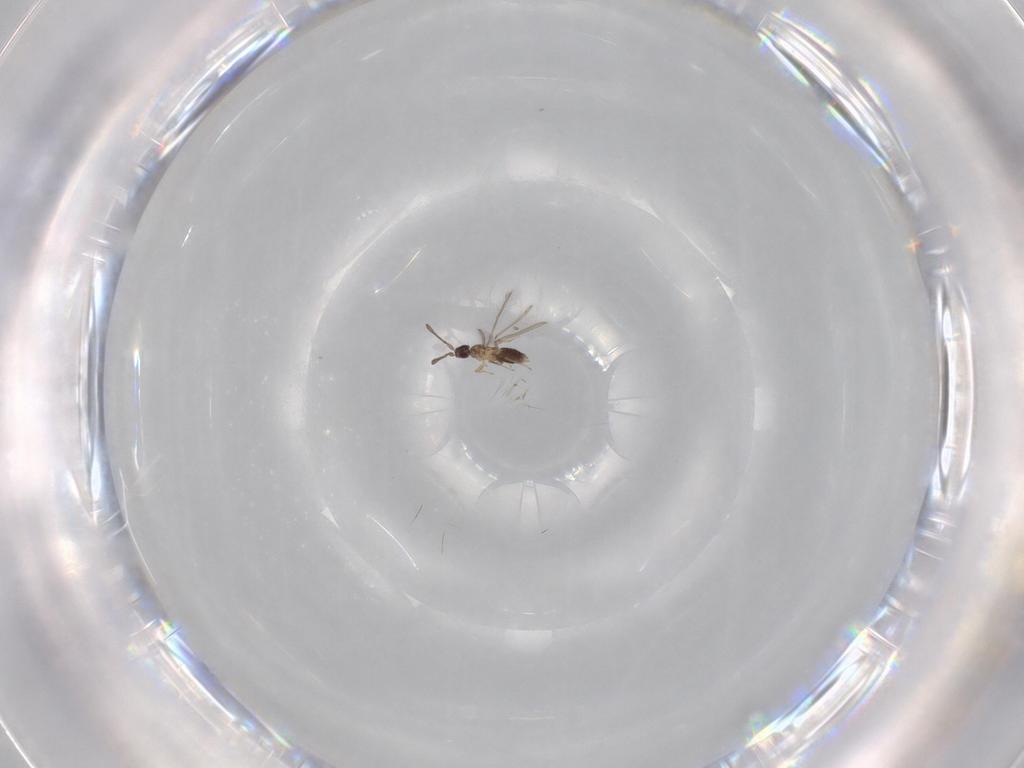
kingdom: Animalia
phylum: Arthropoda
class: Insecta
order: Hymenoptera
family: Mymaridae
